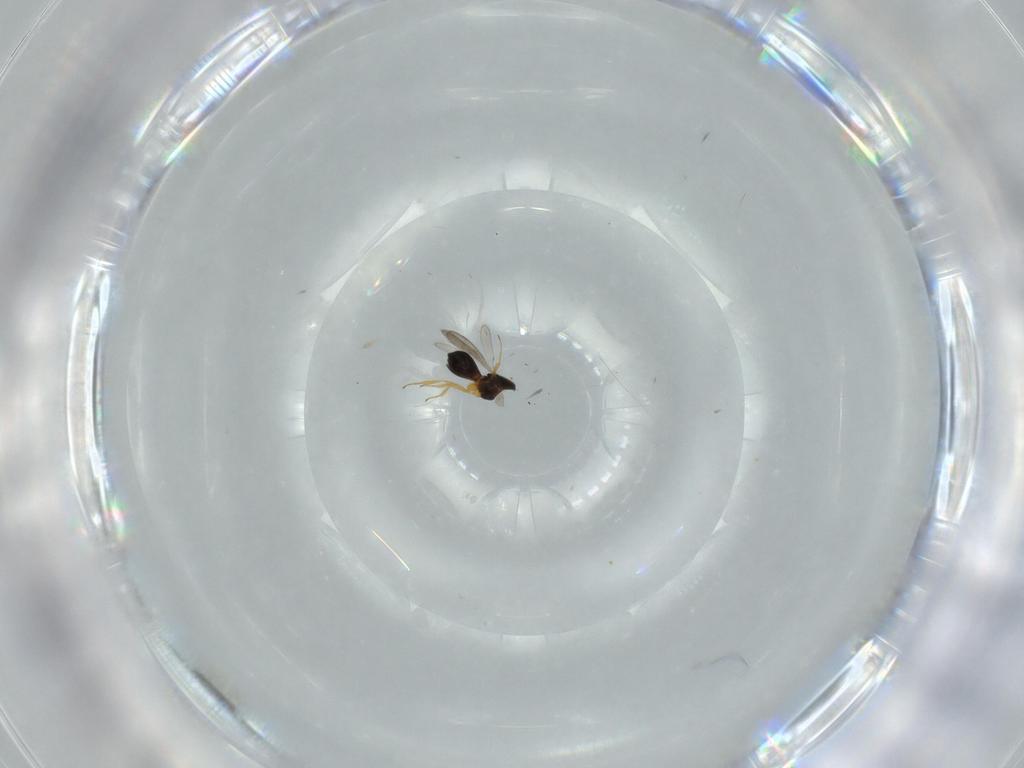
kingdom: Animalia
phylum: Arthropoda
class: Insecta
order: Hymenoptera
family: Scelionidae
